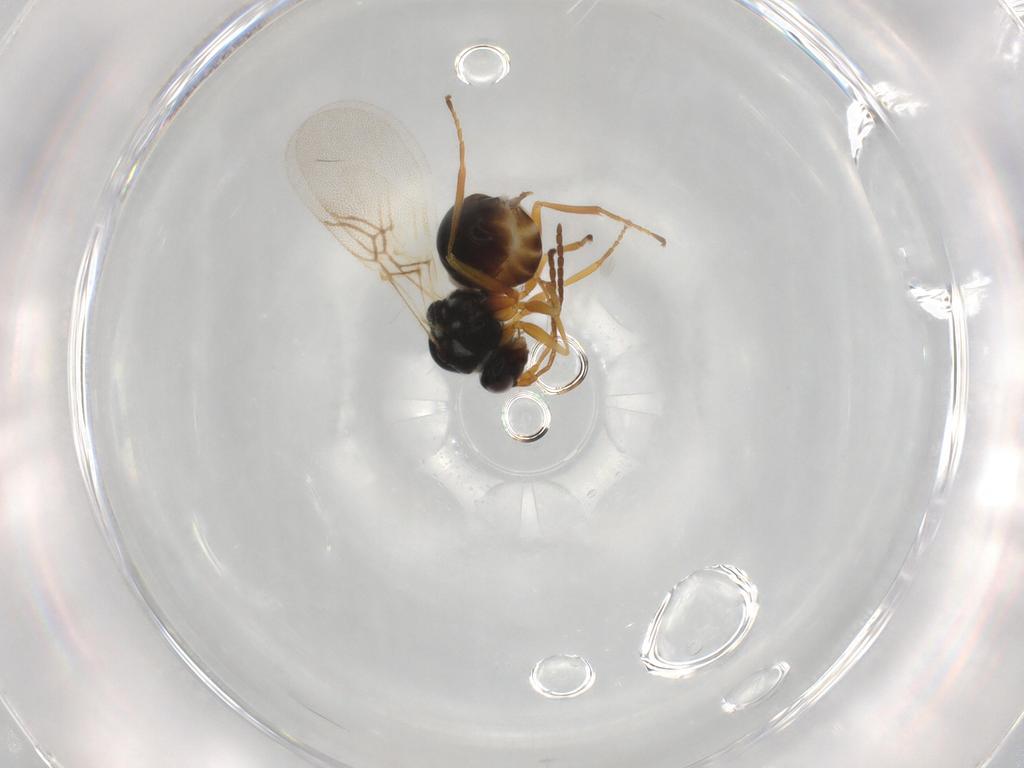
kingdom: Animalia
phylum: Arthropoda
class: Insecta
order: Hymenoptera
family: Figitidae
